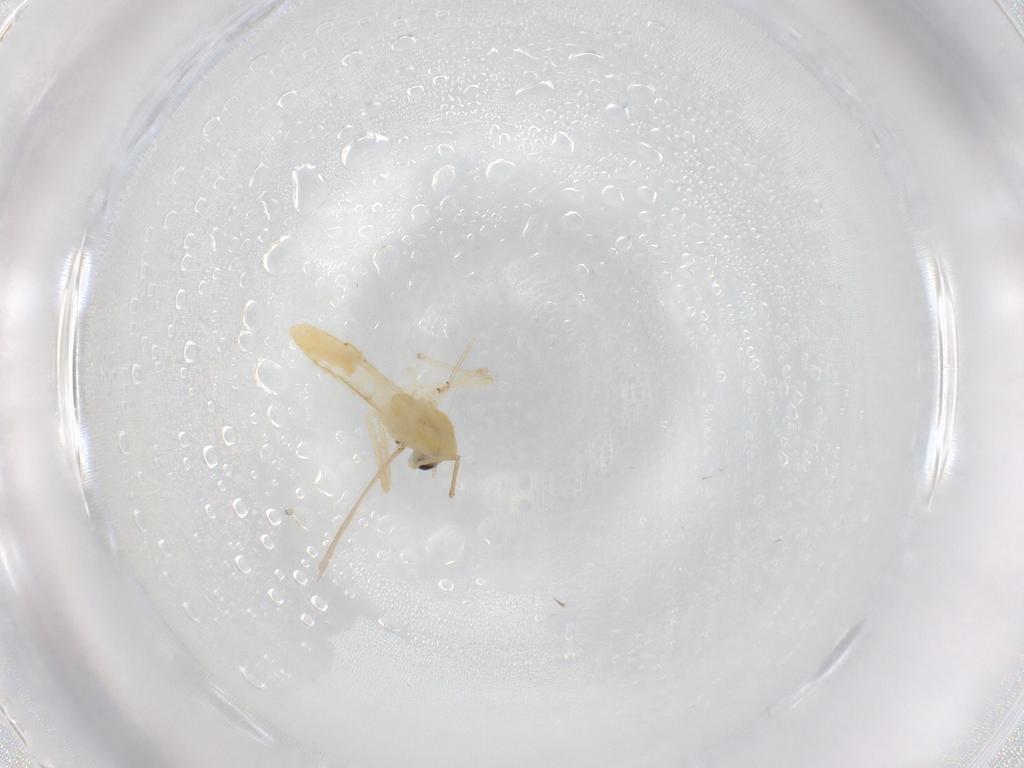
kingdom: Animalia
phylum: Arthropoda
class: Insecta
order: Diptera
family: Chironomidae
